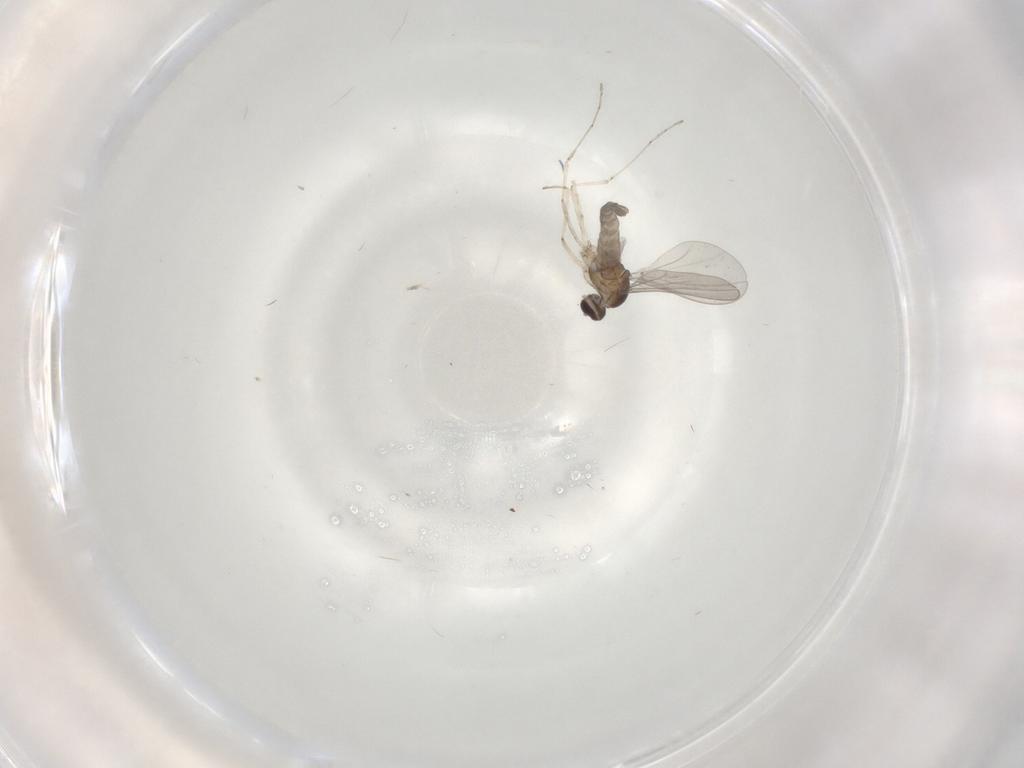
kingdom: Animalia
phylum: Arthropoda
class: Insecta
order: Diptera
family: Cecidomyiidae
